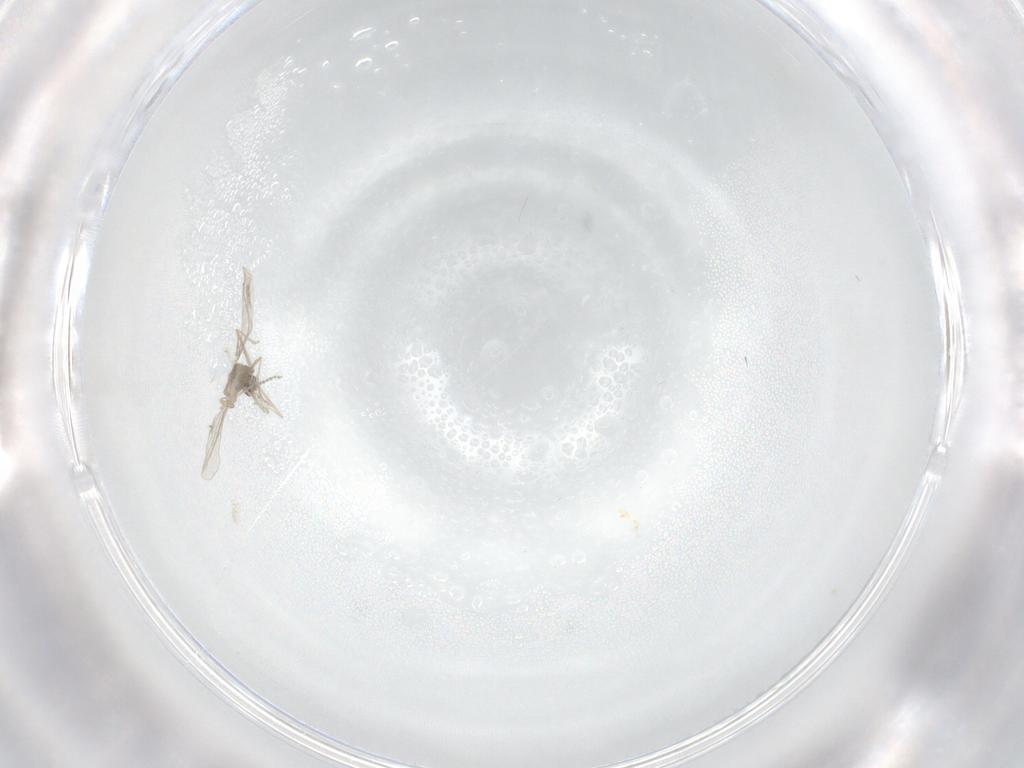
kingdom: Animalia
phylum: Arthropoda
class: Insecta
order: Diptera
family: Cecidomyiidae
